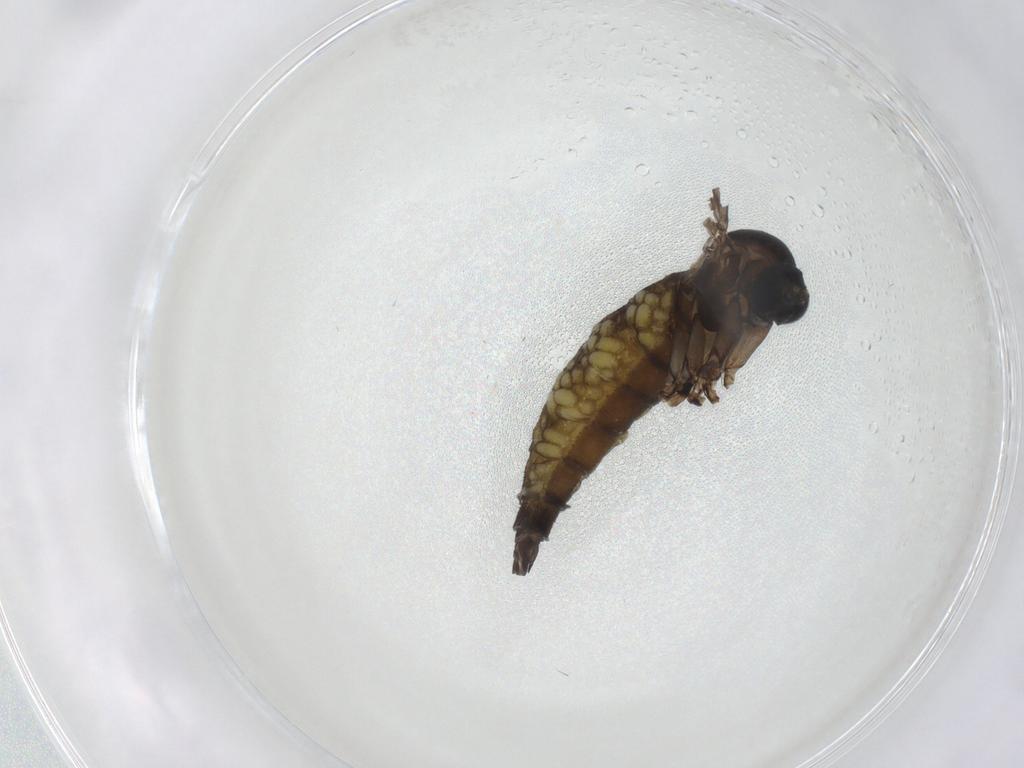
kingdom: Animalia
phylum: Arthropoda
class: Insecta
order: Diptera
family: Sciaridae
